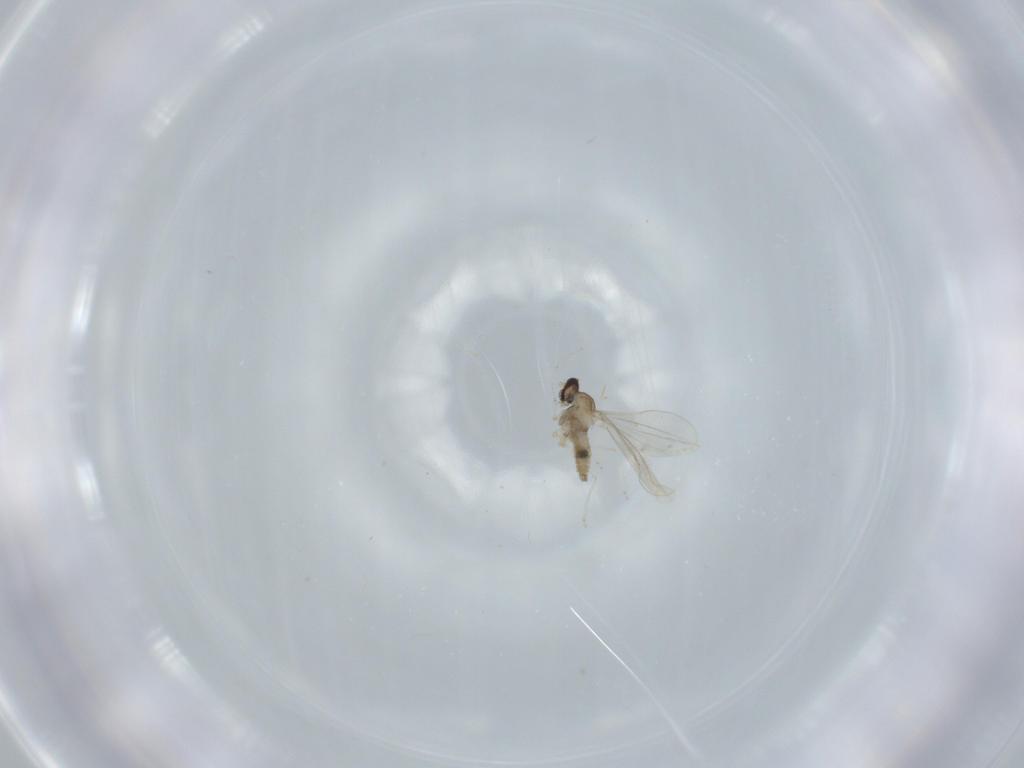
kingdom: Animalia
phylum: Arthropoda
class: Insecta
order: Diptera
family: Cecidomyiidae
